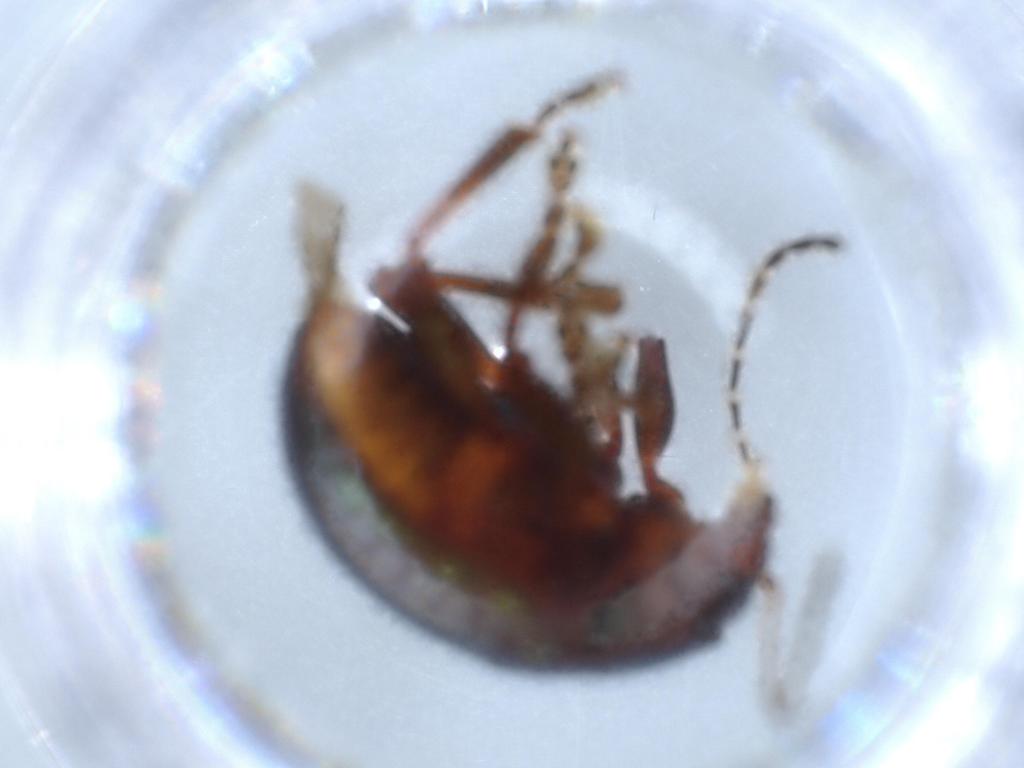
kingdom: Animalia
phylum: Arthropoda
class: Insecta
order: Coleoptera
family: Chrysomelidae
